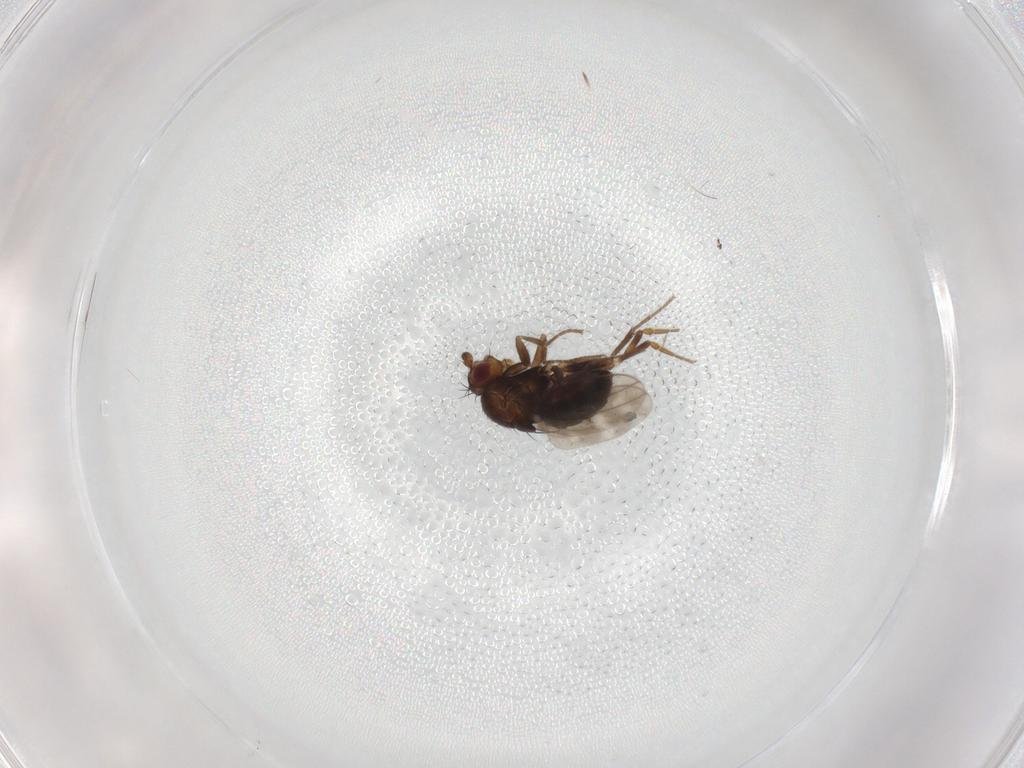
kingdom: Animalia
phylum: Arthropoda
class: Insecta
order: Diptera
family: Sphaeroceridae
